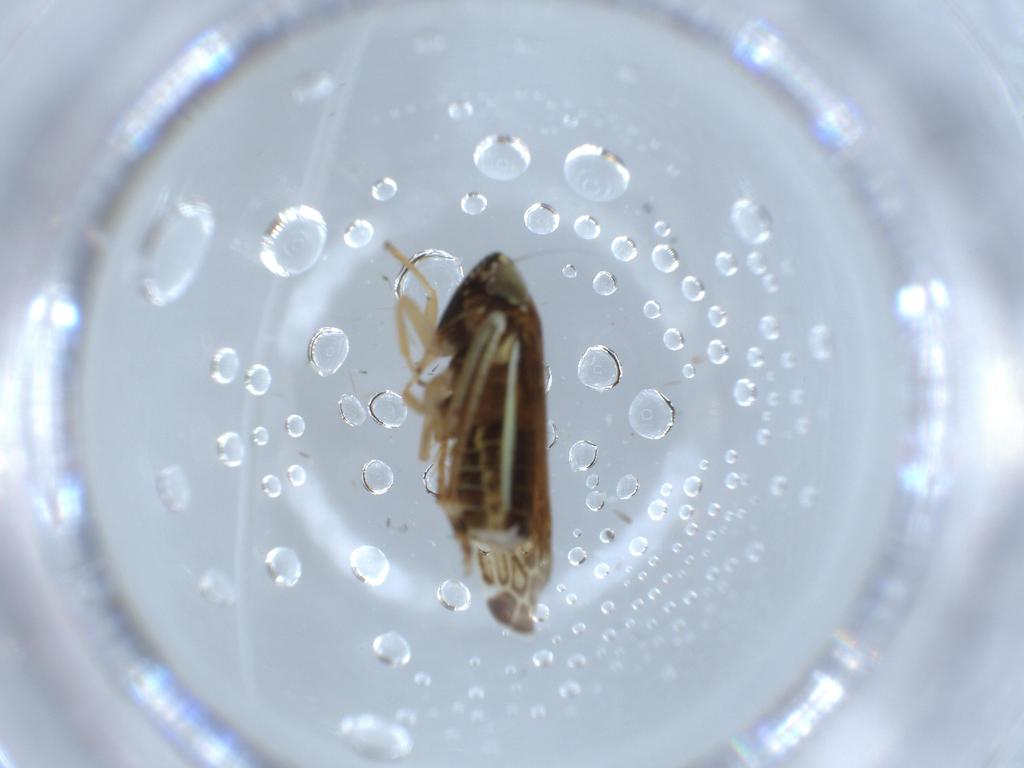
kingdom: Animalia
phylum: Arthropoda
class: Insecta
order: Hemiptera
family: Cicadellidae
